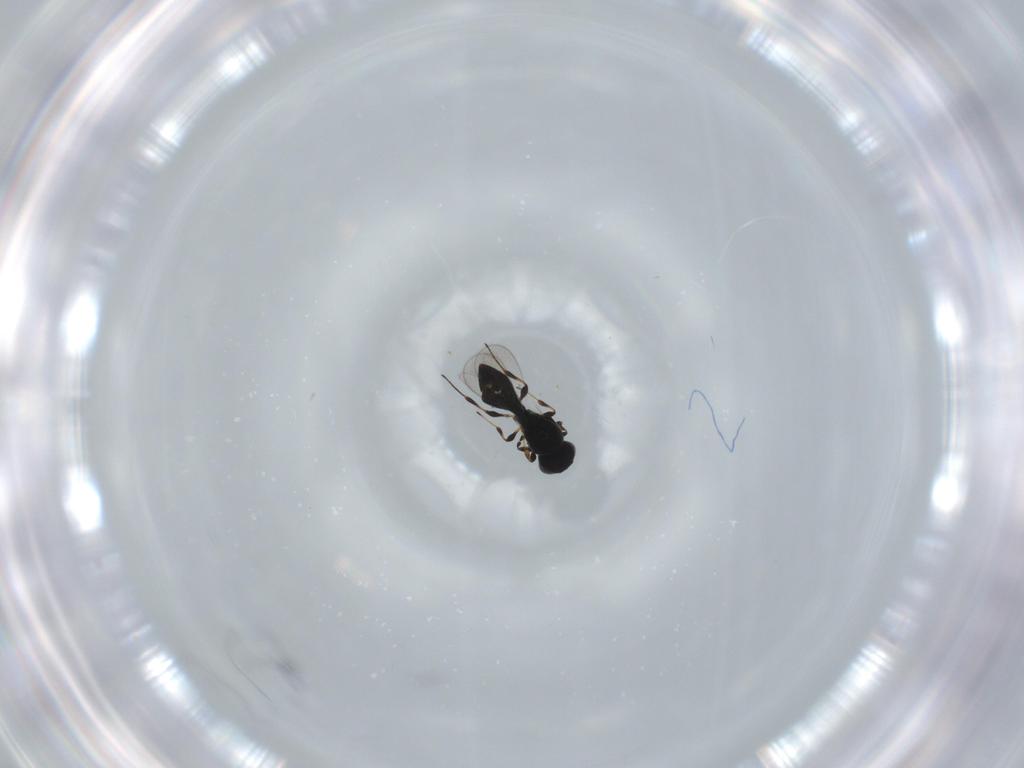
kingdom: Animalia
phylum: Arthropoda
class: Insecta
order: Hymenoptera
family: Platygastridae
